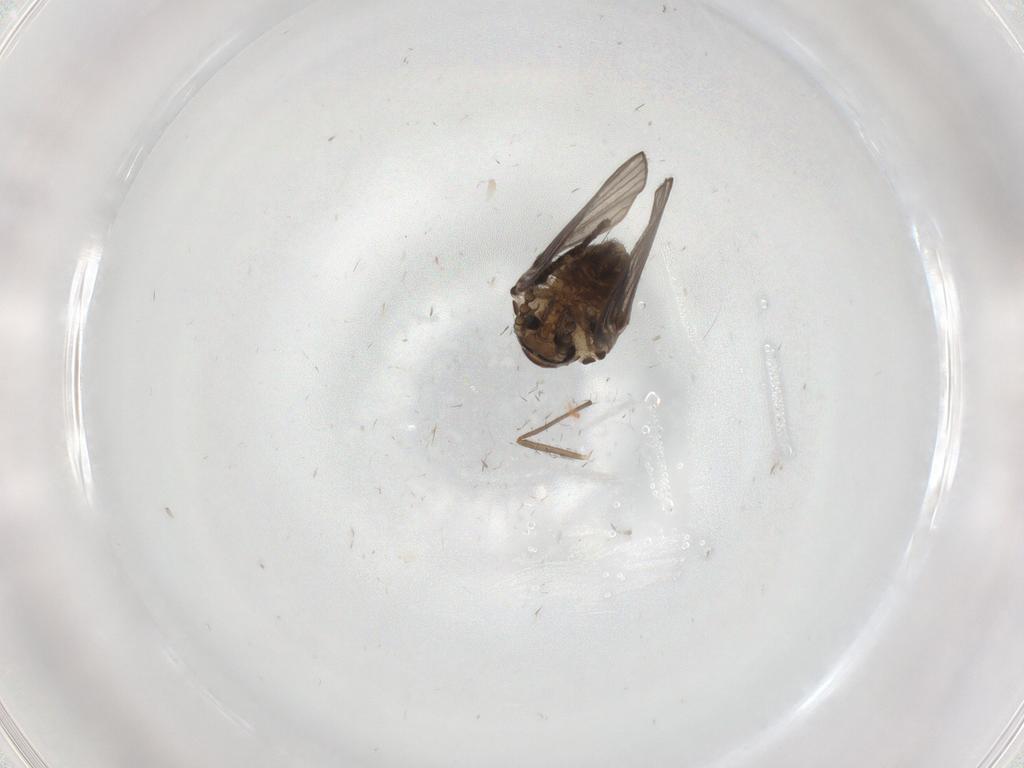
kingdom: Animalia
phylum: Arthropoda
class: Insecta
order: Diptera
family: Psychodidae
